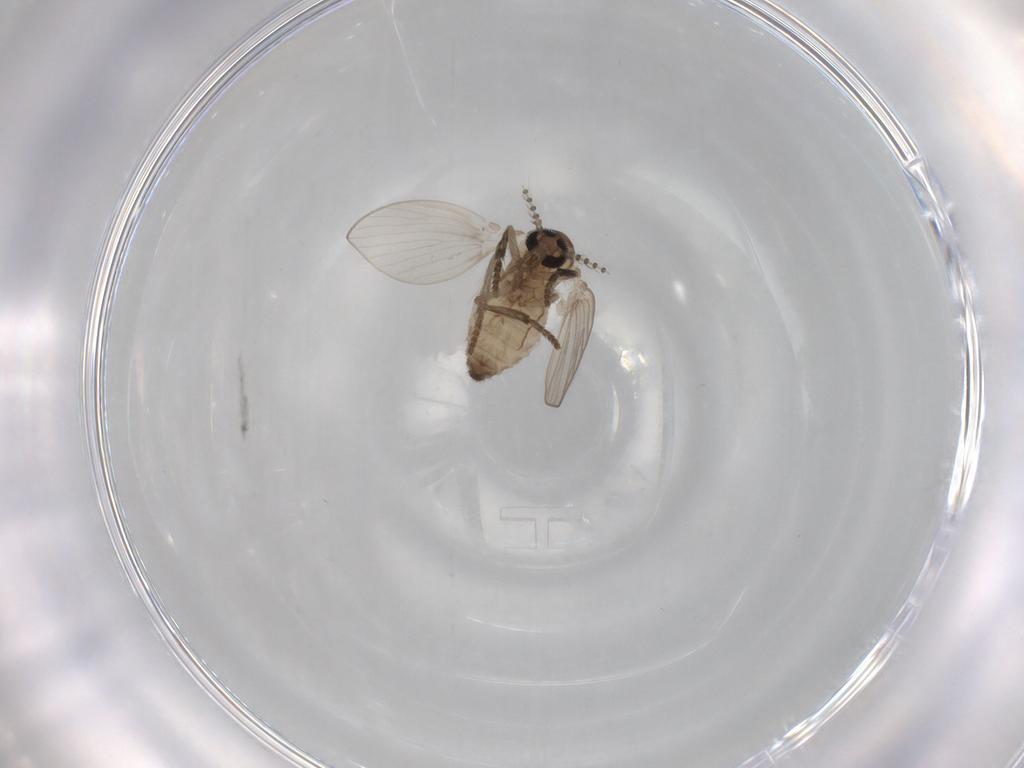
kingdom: Animalia
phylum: Arthropoda
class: Insecta
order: Diptera
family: Psychodidae
